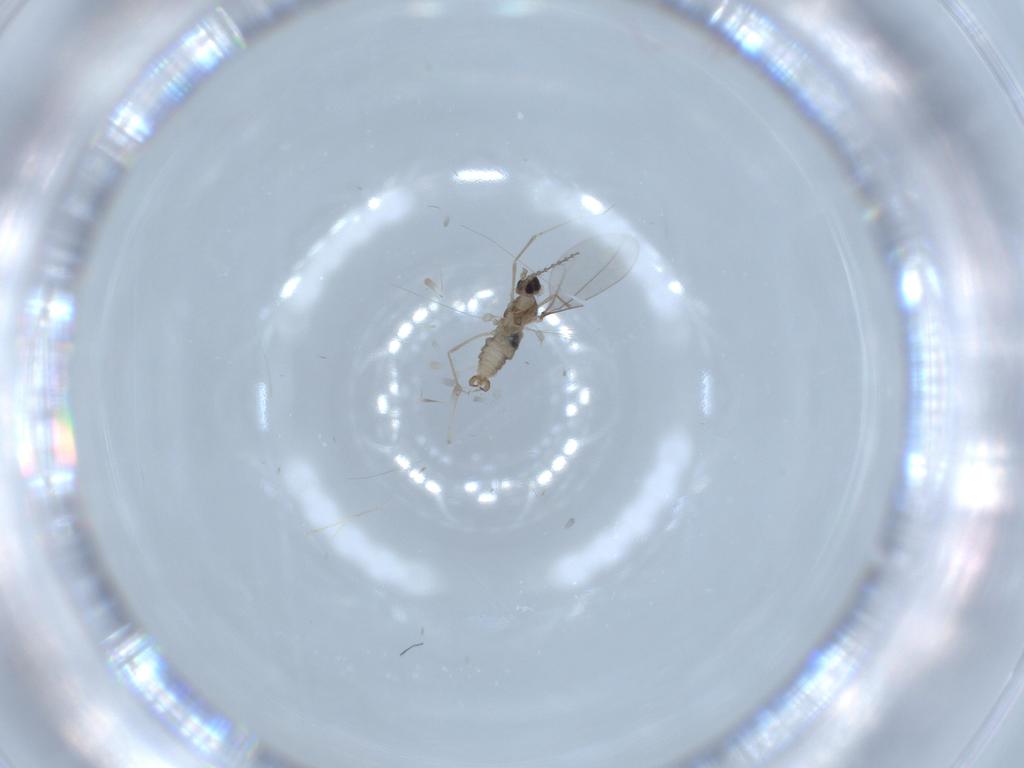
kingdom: Animalia
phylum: Arthropoda
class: Insecta
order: Diptera
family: Cecidomyiidae
